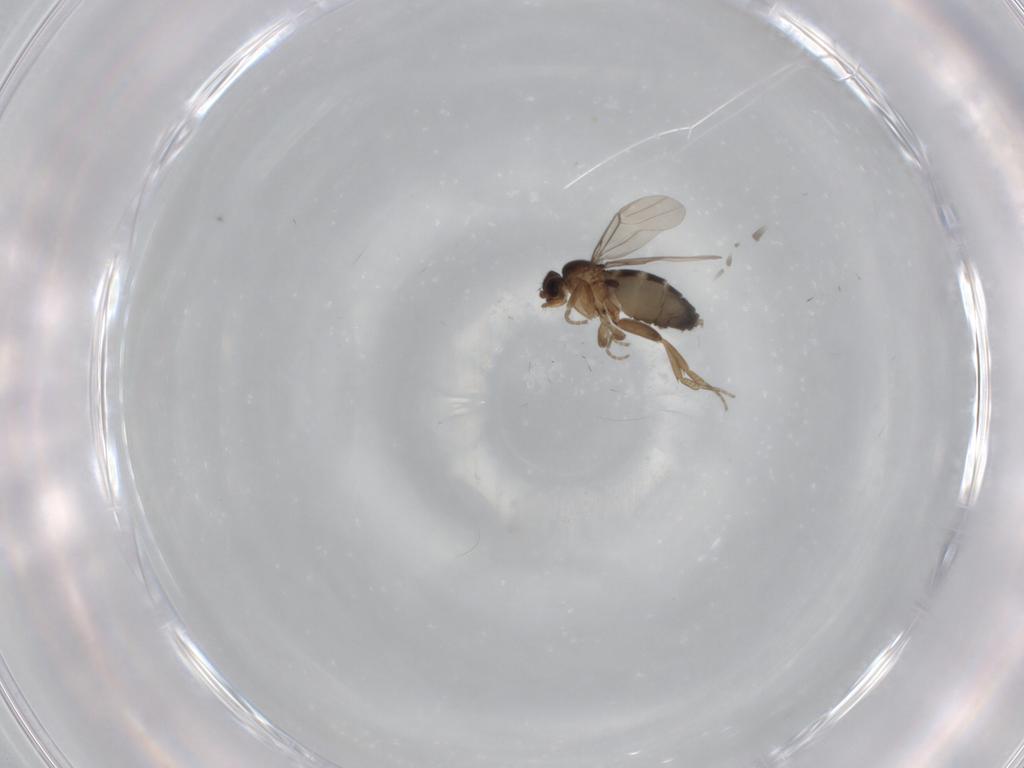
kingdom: Animalia
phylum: Arthropoda
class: Insecta
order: Diptera
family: Phoridae
